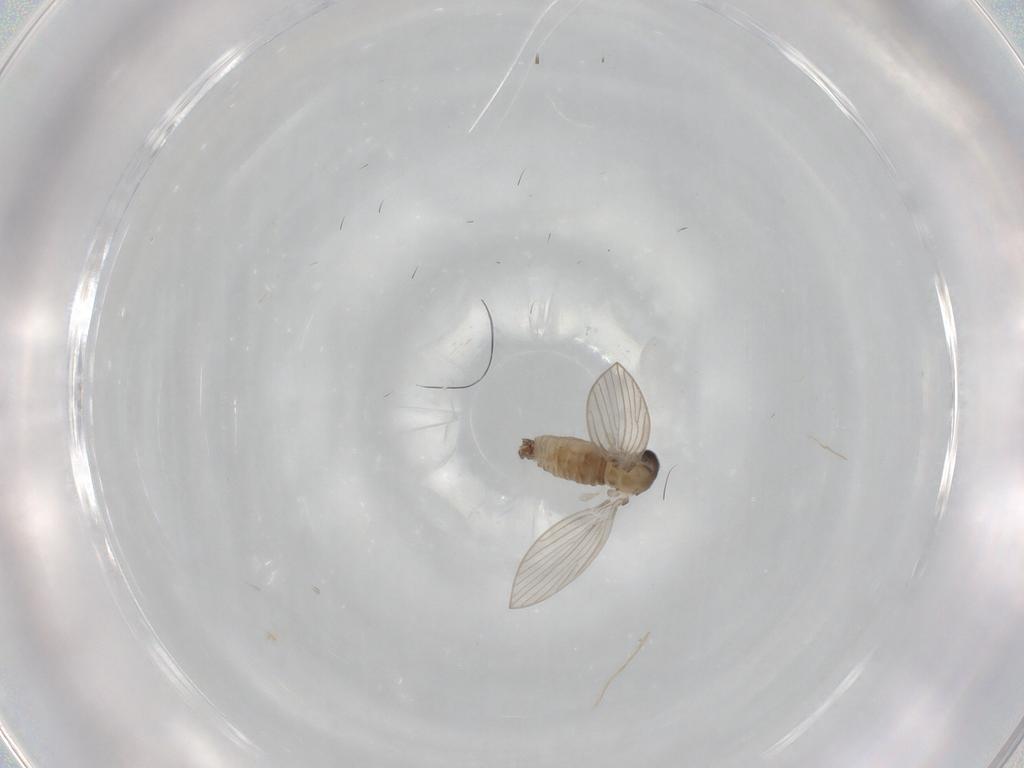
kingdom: Animalia
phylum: Arthropoda
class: Insecta
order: Diptera
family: Psychodidae
